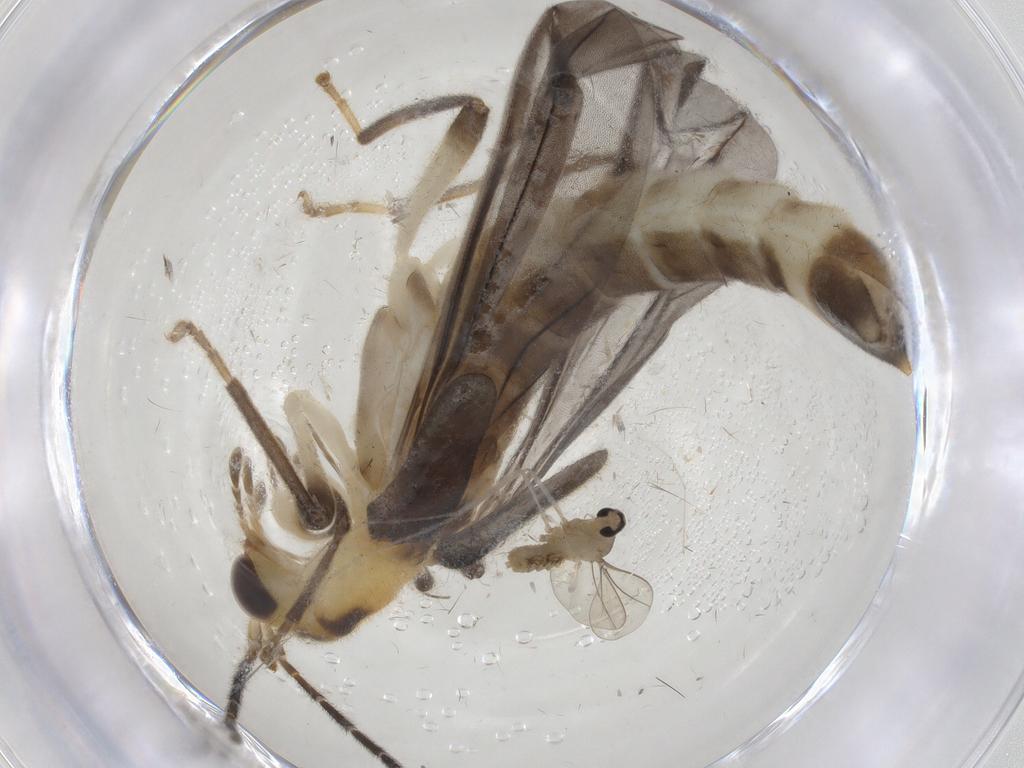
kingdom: Animalia
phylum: Arthropoda
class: Insecta
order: Coleoptera
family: Cantharidae
